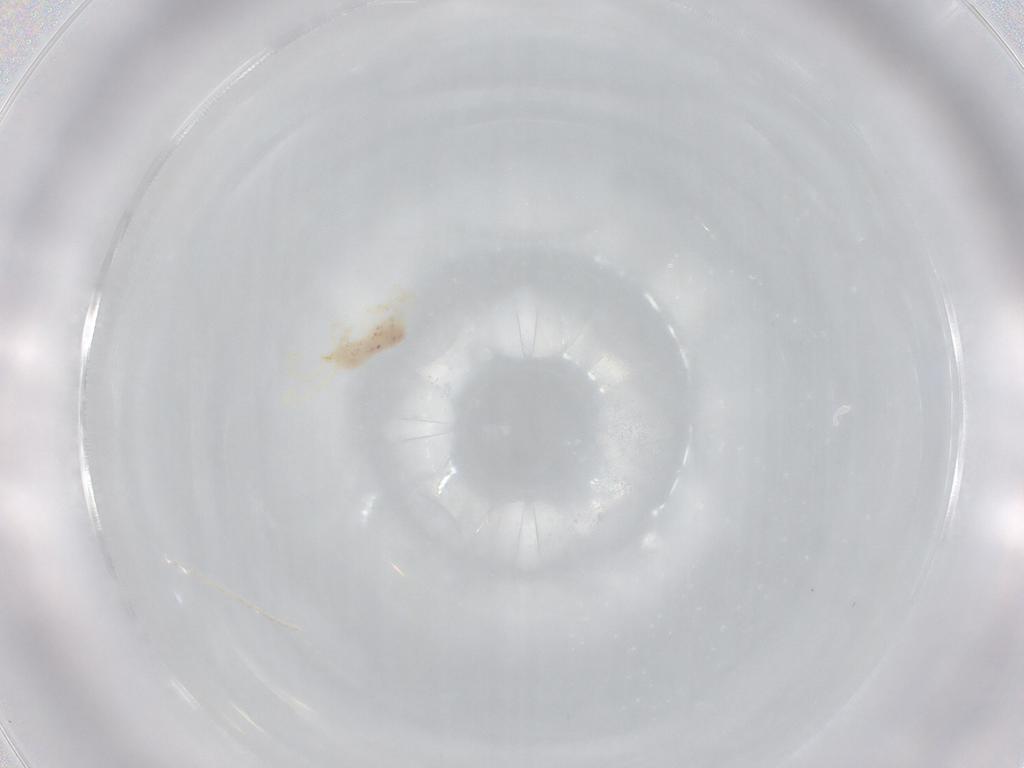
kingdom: Animalia
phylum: Arthropoda
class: Arachnida
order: Trombidiformes
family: Erythraeidae
